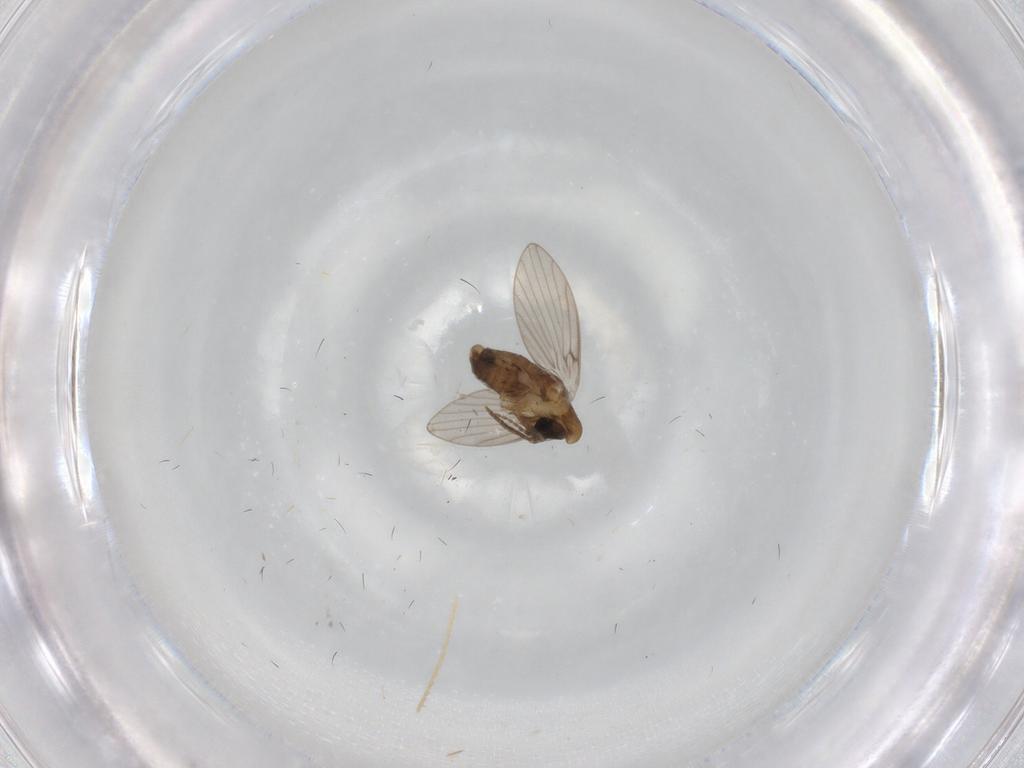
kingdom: Animalia
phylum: Arthropoda
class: Insecta
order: Diptera
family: Psychodidae
